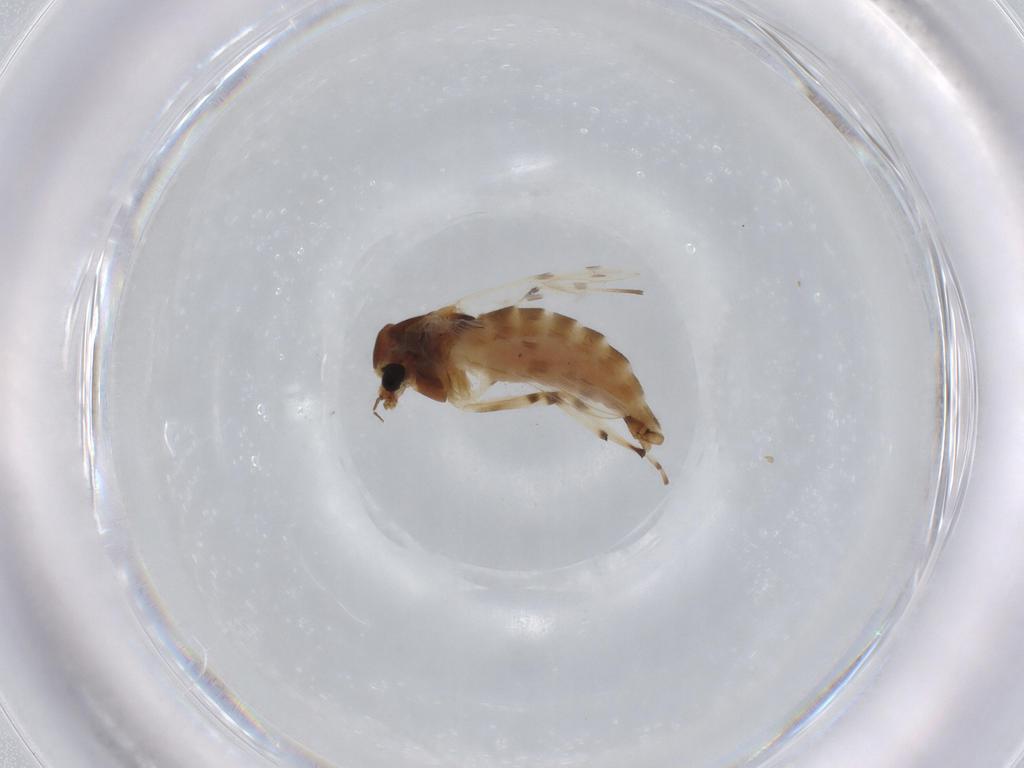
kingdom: Animalia
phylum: Arthropoda
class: Insecta
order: Diptera
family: Chironomidae
